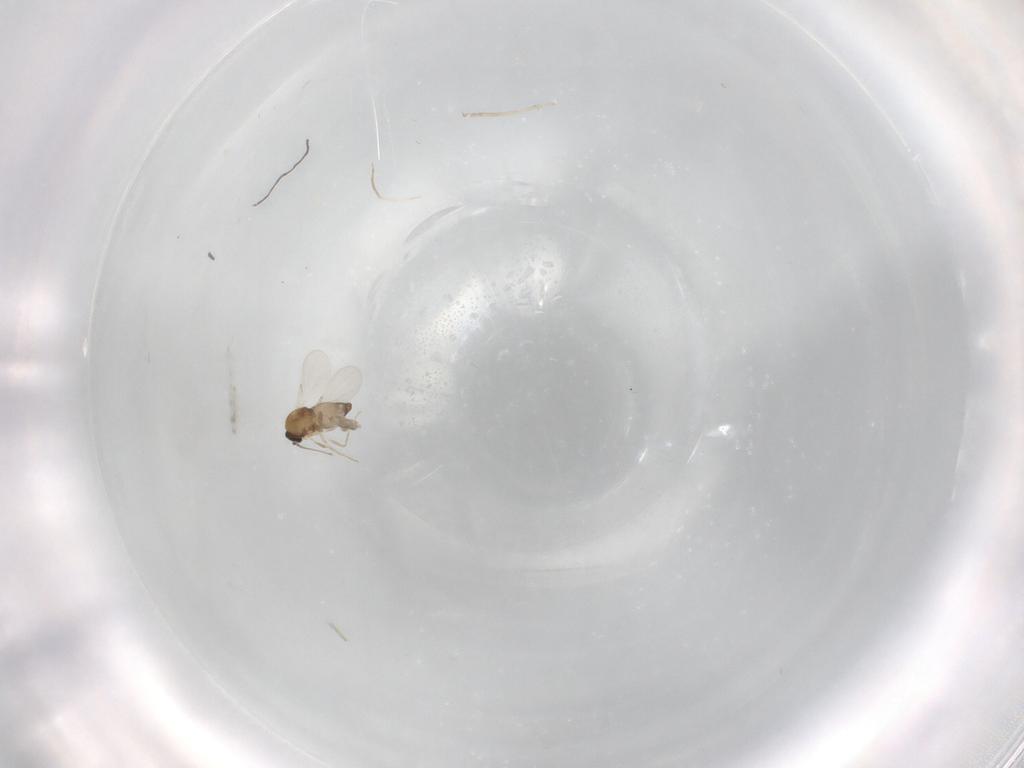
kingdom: Animalia
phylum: Arthropoda
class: Insecta
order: Diptera
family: Ceratopogonidae
